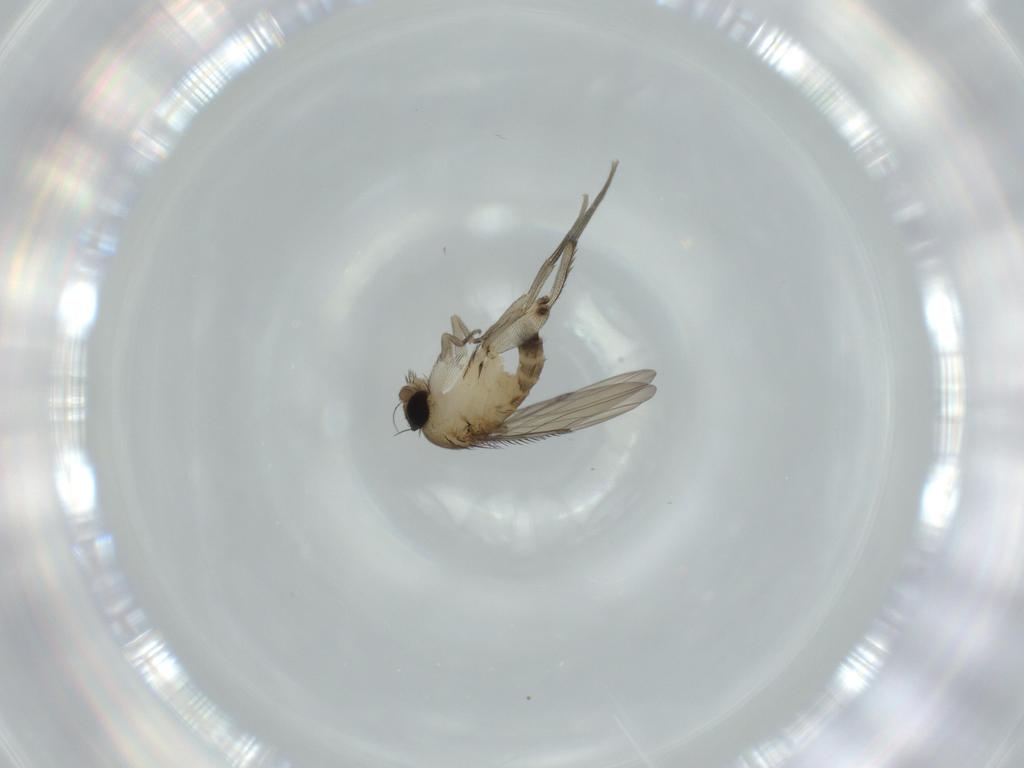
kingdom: Animalia
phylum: Arthropoda
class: Insecta
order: Diptera
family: Phoridae
